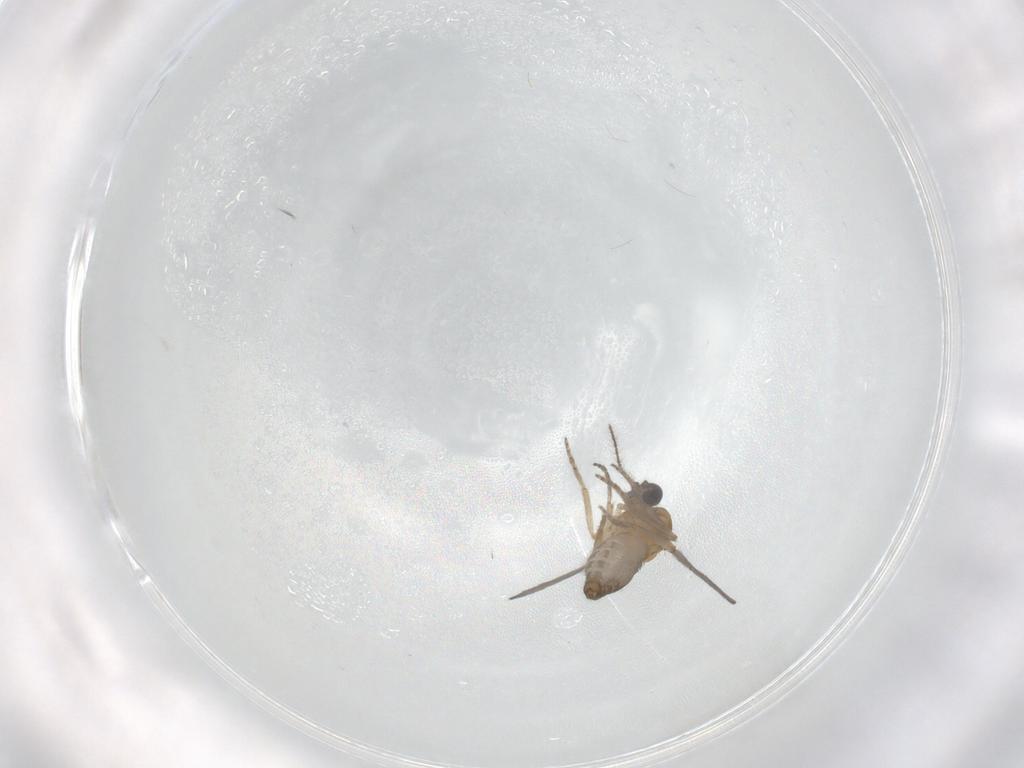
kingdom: Animalia
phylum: Arthropoda
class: Insecta
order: Diptera
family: Ceratopogonidae
